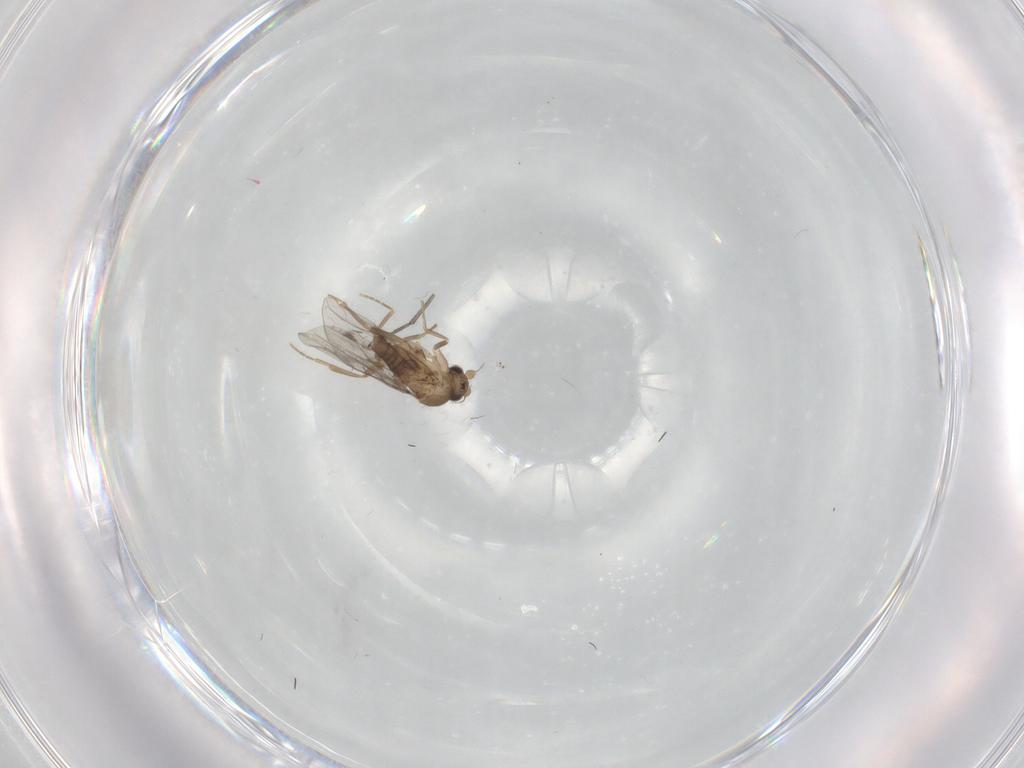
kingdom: Animalia
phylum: Arthropoda
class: Insecta
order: Diptera
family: Sciaridae
